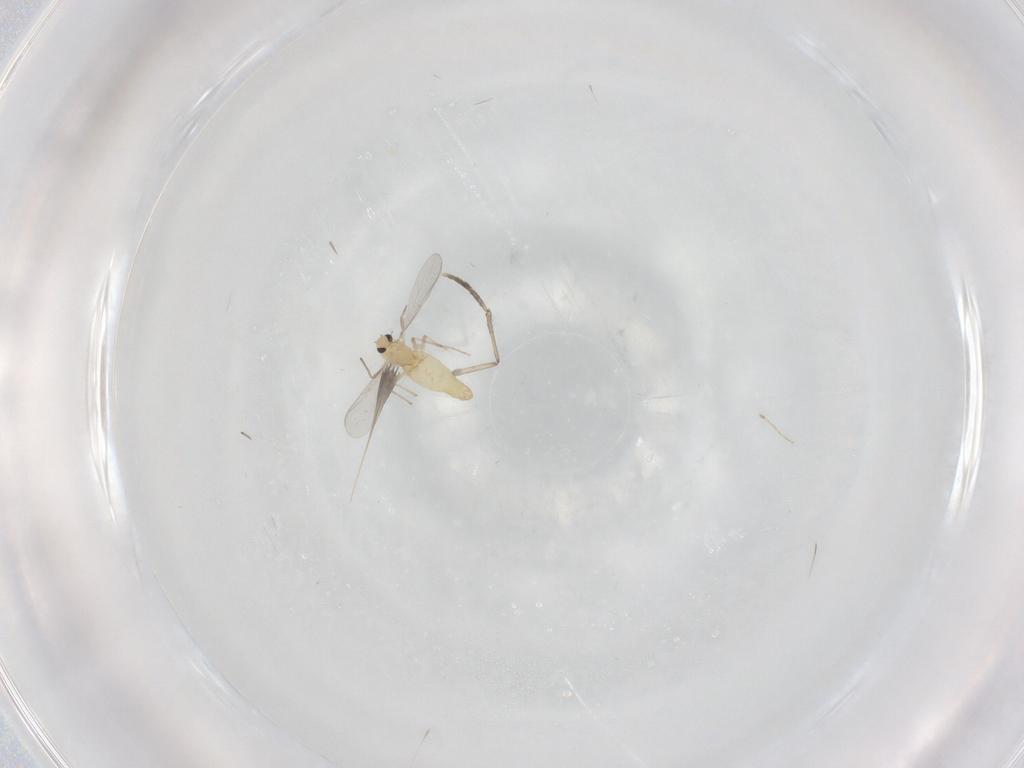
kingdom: Animalia
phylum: Arthropoda
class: Insecta
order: Diptera
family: Chironomidae
